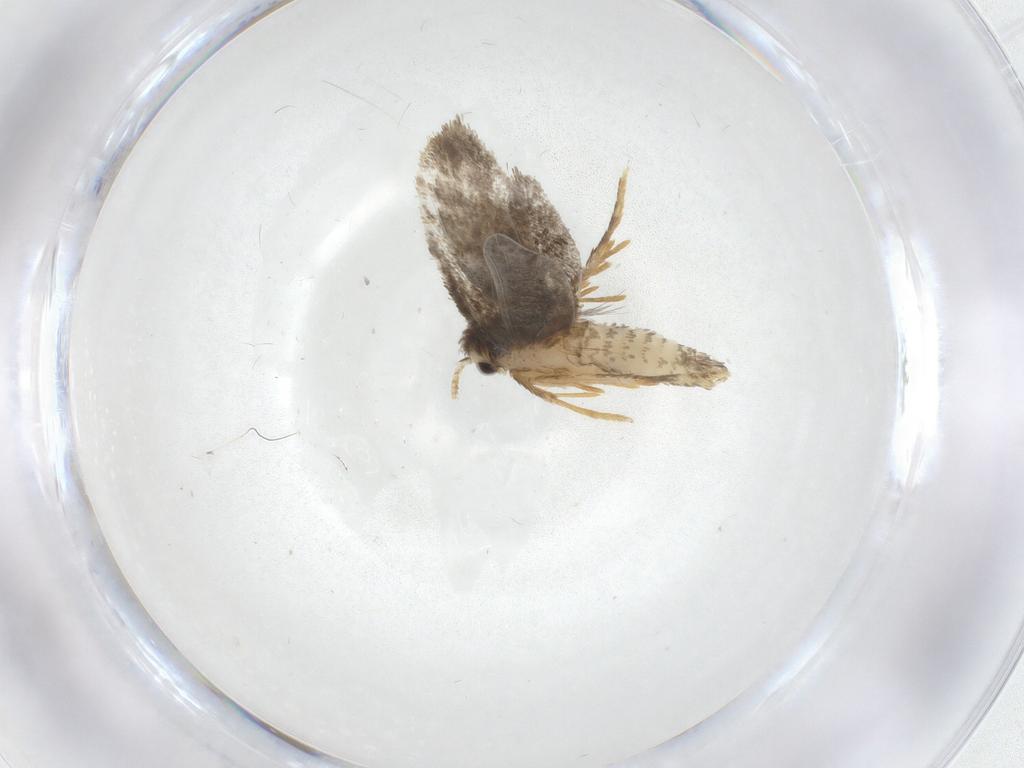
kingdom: Animalia
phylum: Arthropoda
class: Insecta
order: Lepidoptera
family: Psychidae
